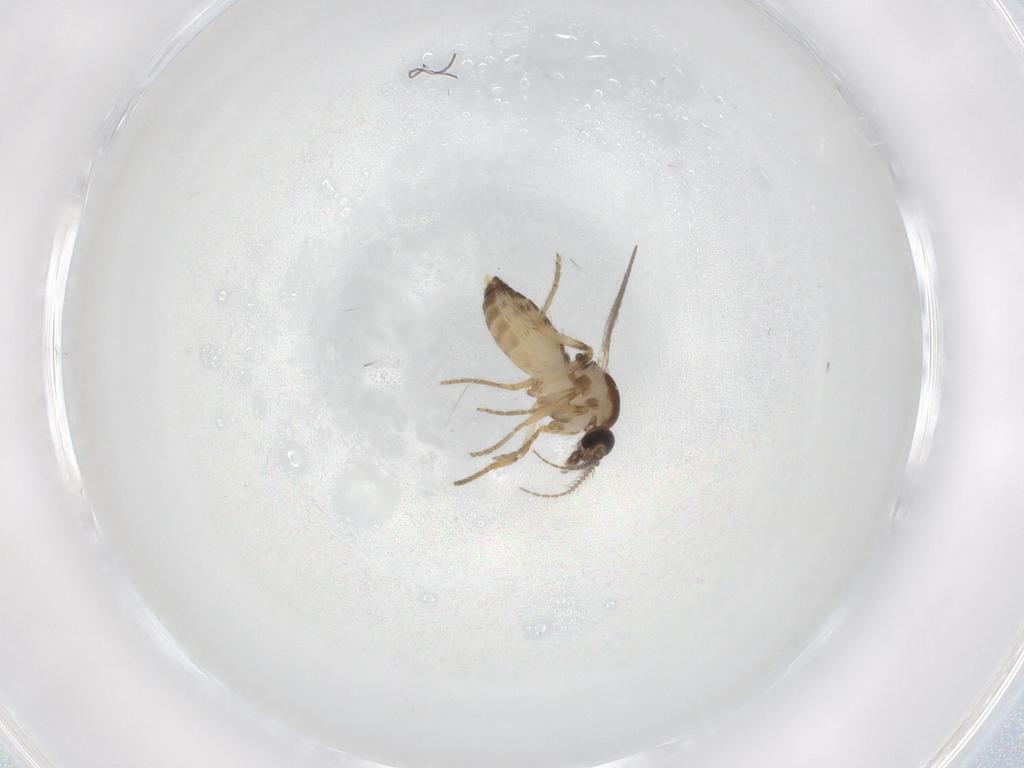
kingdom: Animalia
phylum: Arthropoda
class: Insecta
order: Diptera
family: Ceratopogonidae
